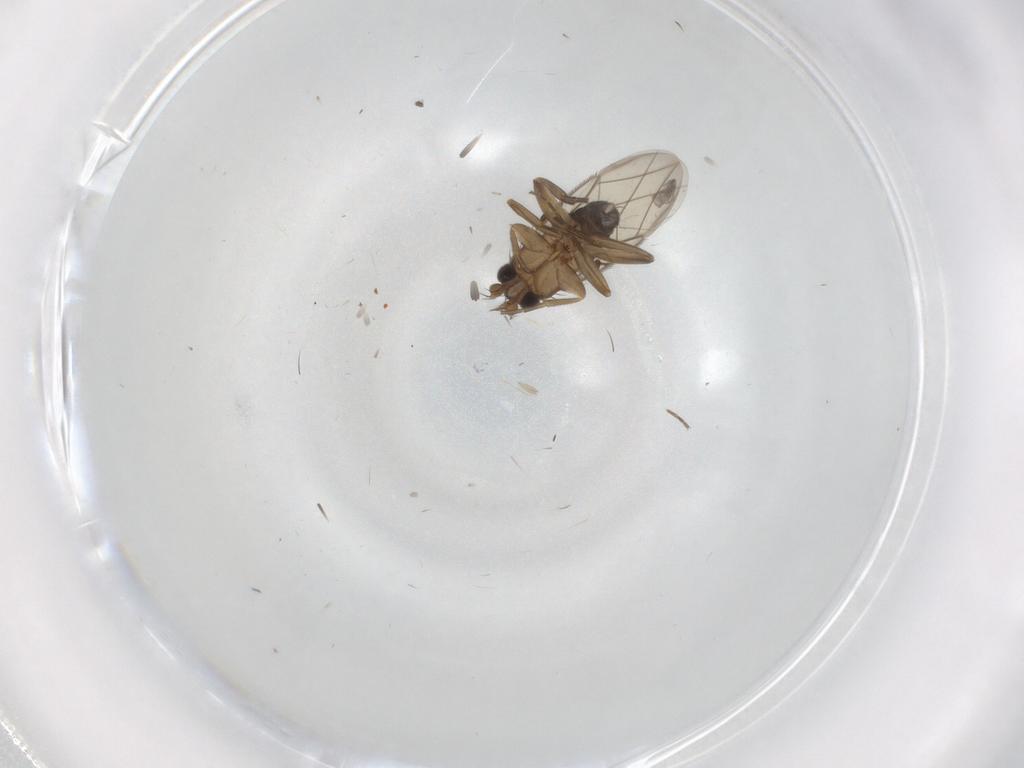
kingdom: Animalia
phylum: Arthropoda
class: Insecta
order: Diptera
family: Phoridae
